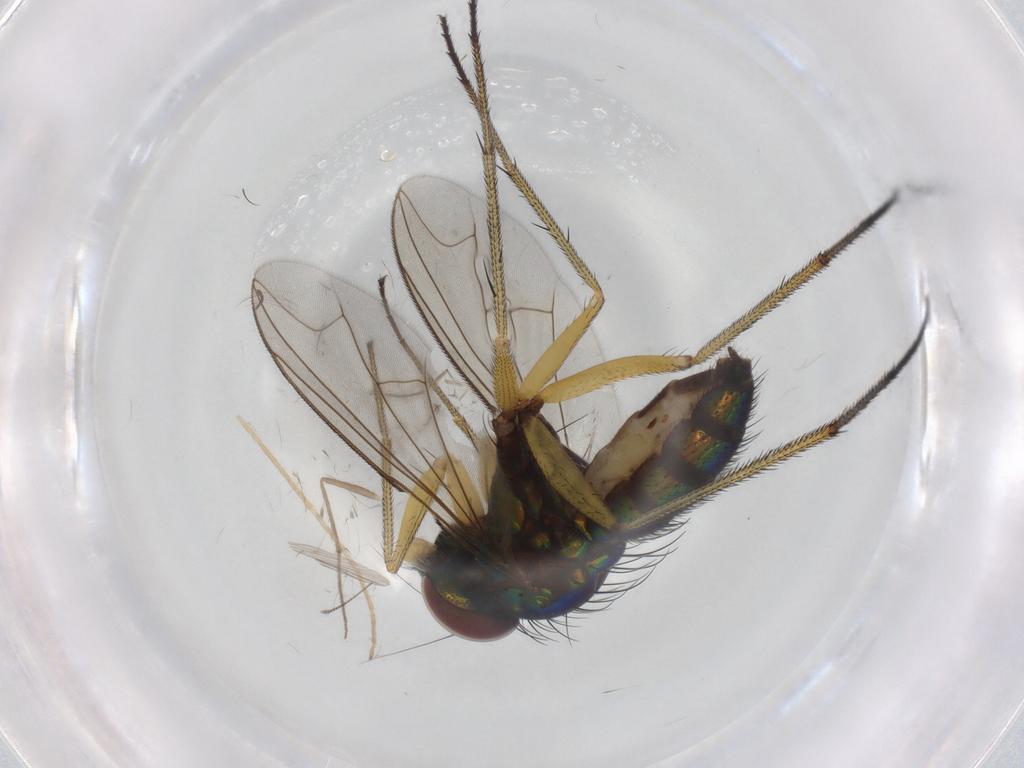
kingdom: Animalia
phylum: Arthropoda
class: Insecta
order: Diptera
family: Dolichopodidae
